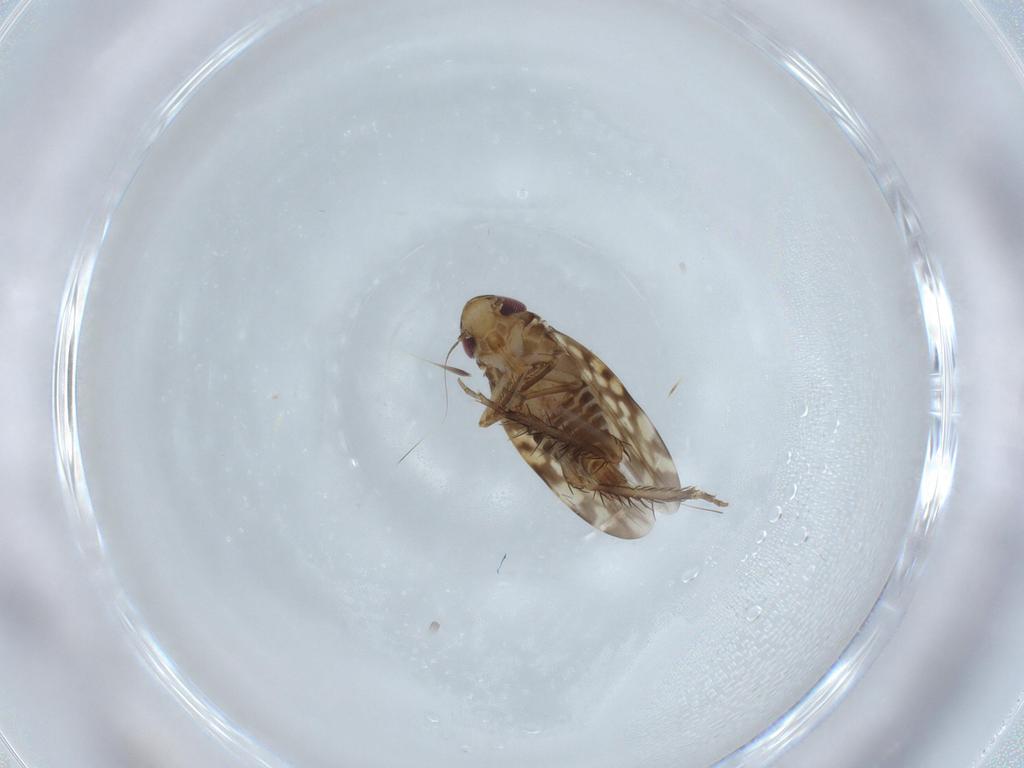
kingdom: Animalia
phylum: Arthropoda
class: Insecta
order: Hemiptera
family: Cicadellidae
